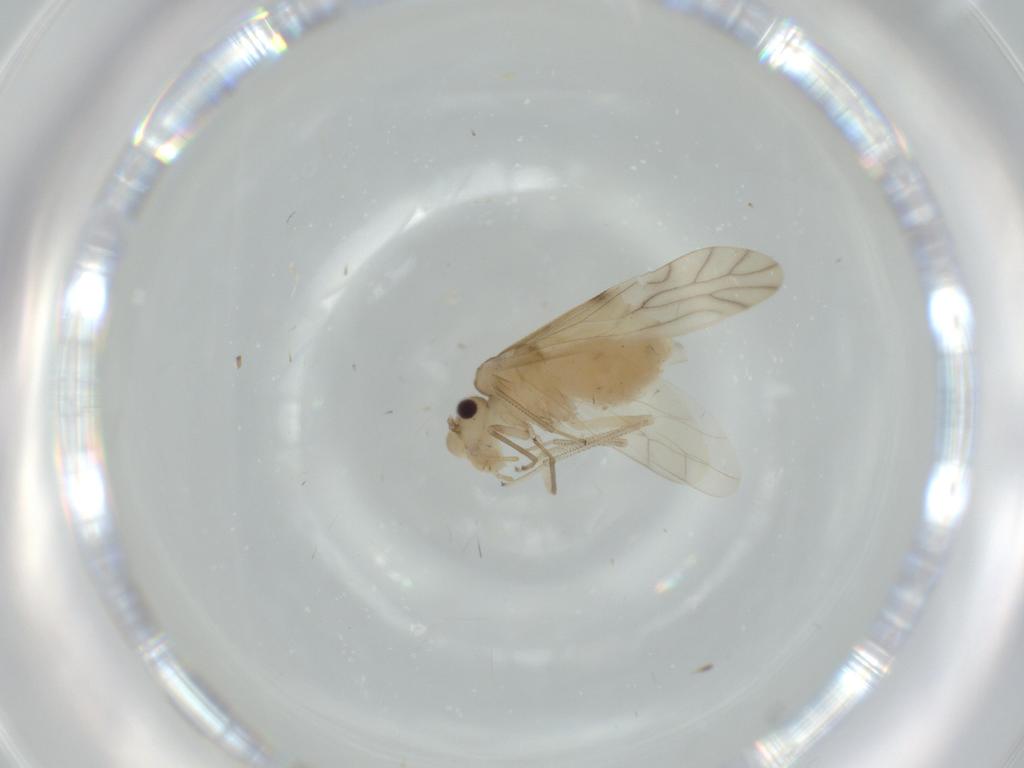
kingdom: Animalia
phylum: Arthropoda
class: Insecta
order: Psocodea
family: Caeciliusidae
